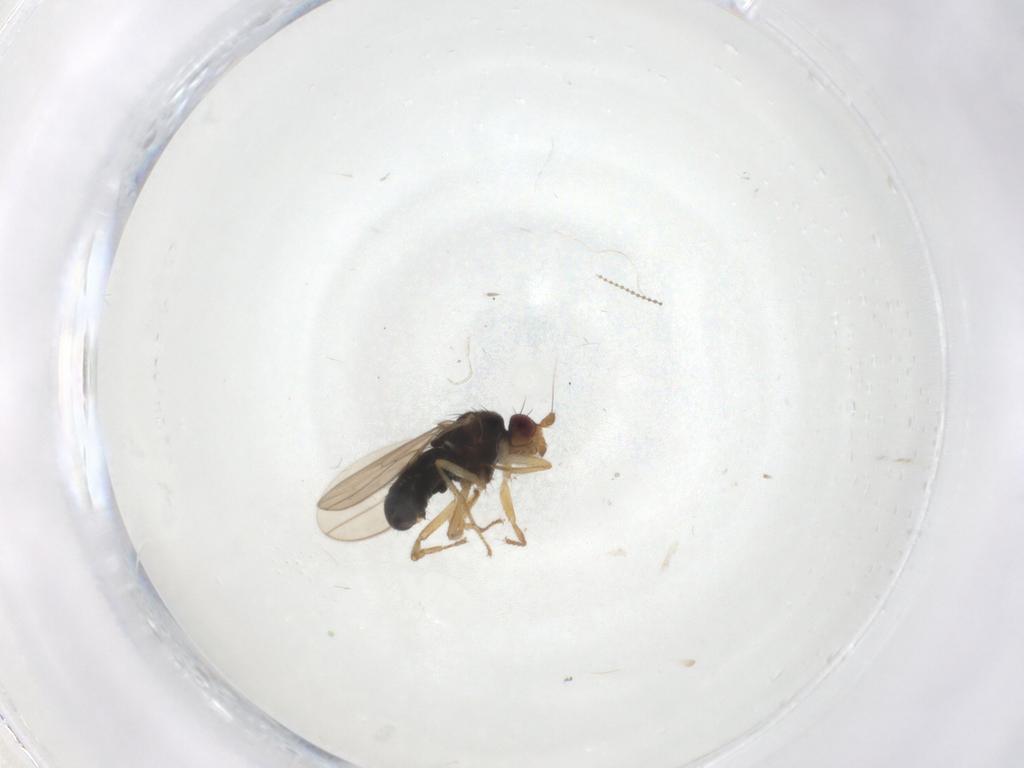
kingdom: Animalia
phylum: Arthropoda
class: Insecta
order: Diptera
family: Sphaeroceridae
